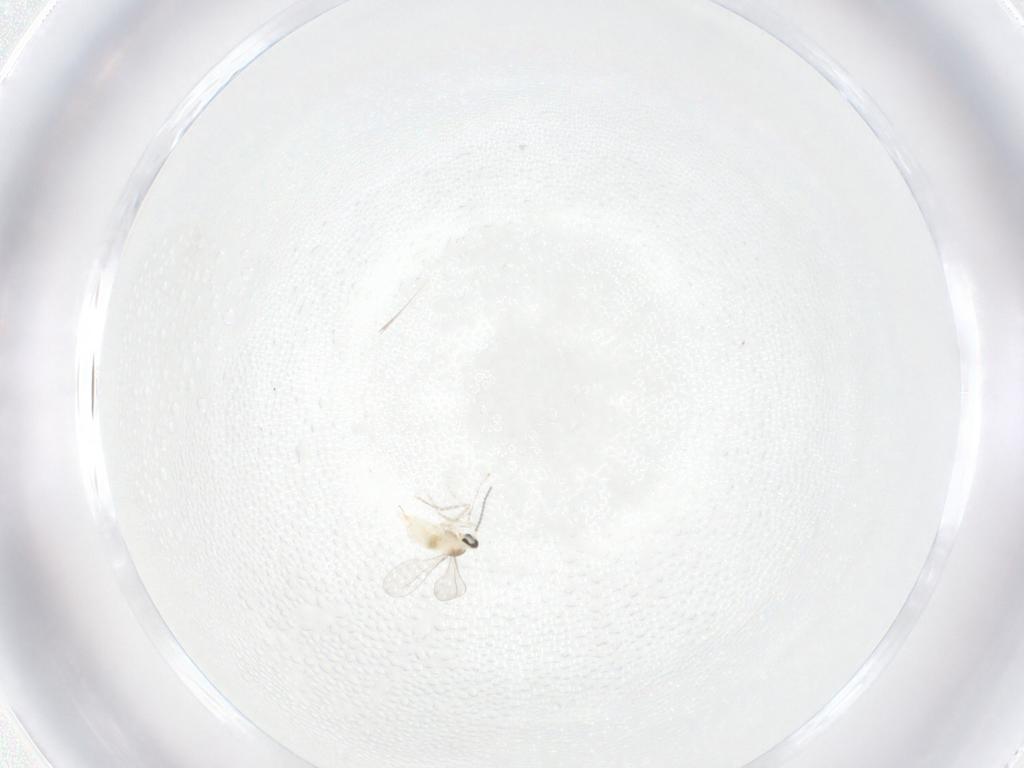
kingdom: Animalia
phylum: Arthropoda
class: Insecta
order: Diptera
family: Cecidomyiidae
